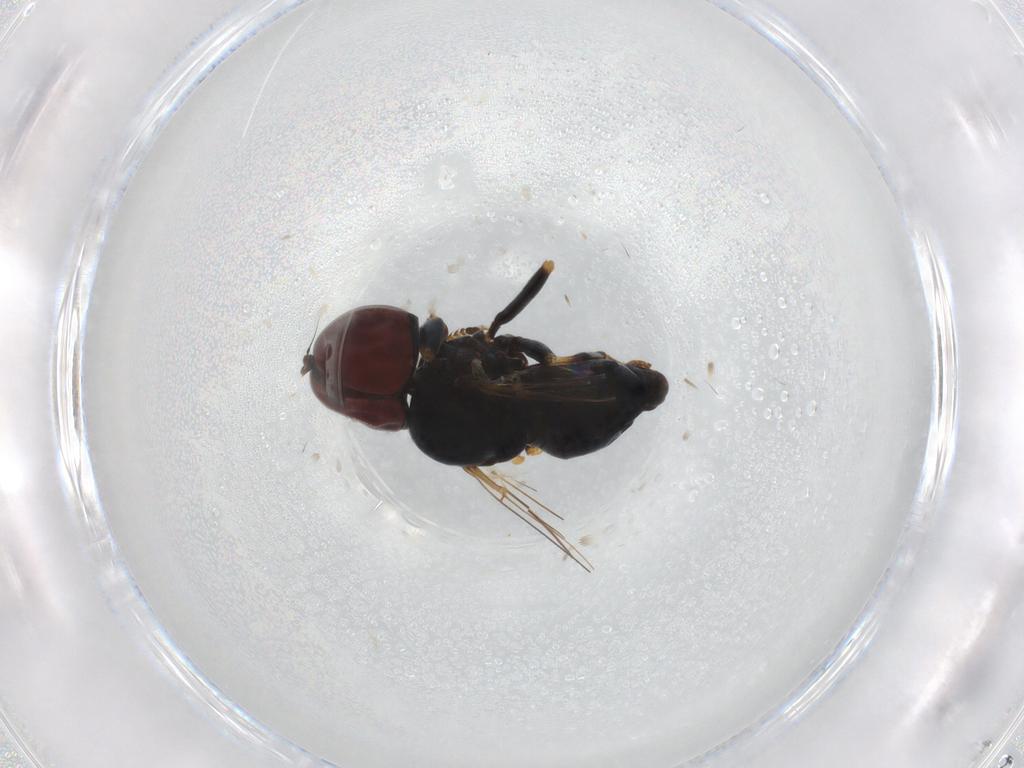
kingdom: Animalia
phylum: Arthropoda
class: Insecta
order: Diptera
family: Pipunculidae
